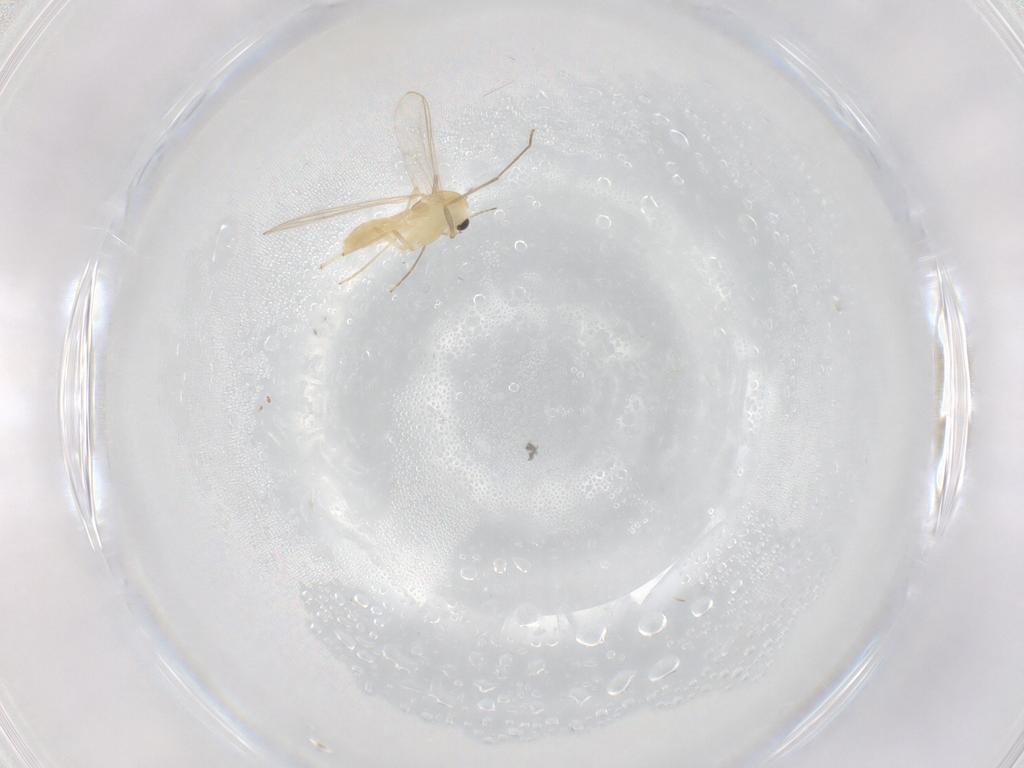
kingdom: Animalia
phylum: Arthropoda
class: Insecta
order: Diptera
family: Chironomidae
